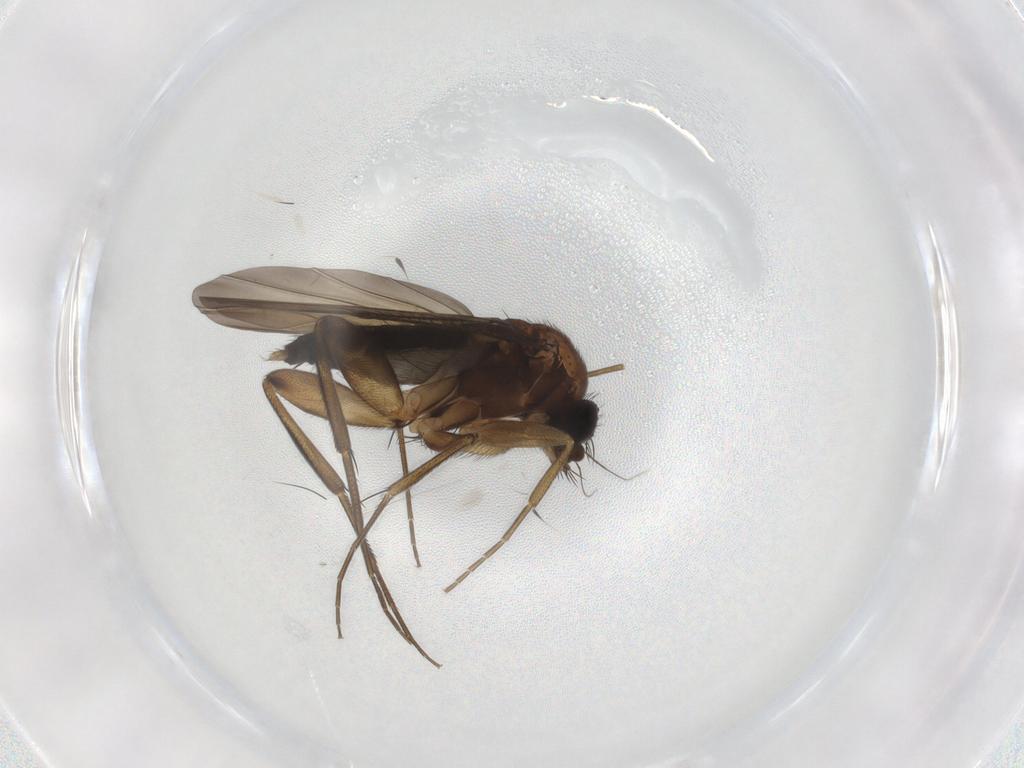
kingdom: Animalia
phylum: Arthropoda
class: Insecta
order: Diptera
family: Phoridae
